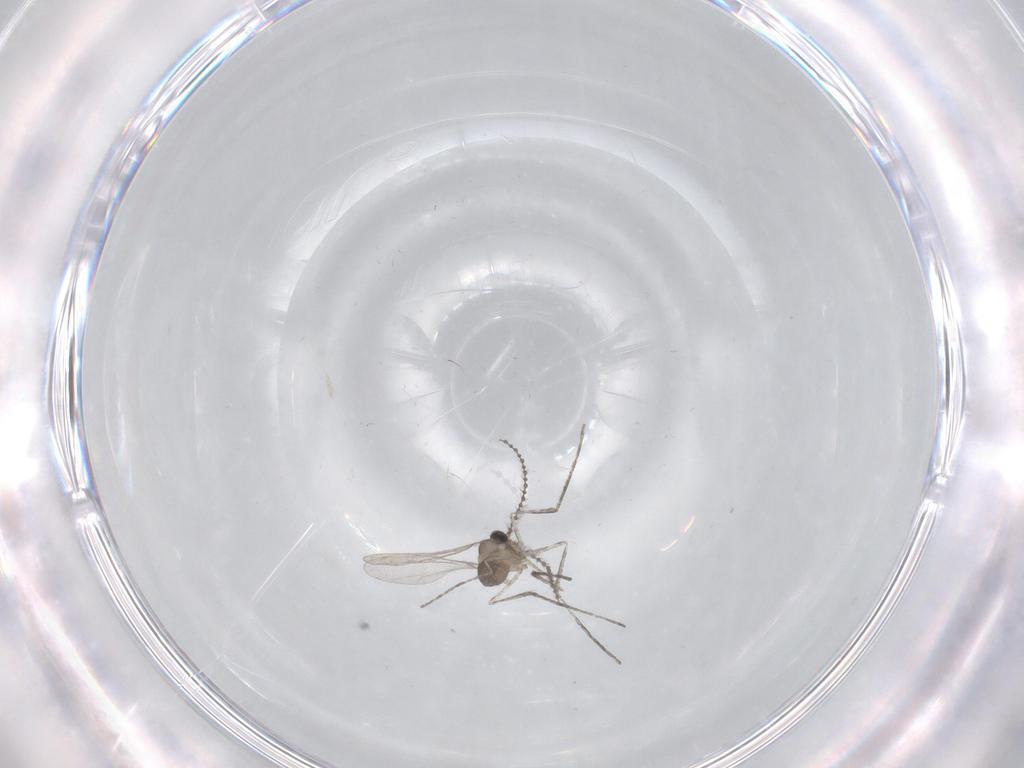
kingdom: Animalia
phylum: Arthropoda
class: Insecta
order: Diptera
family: Cecidomyiidae
